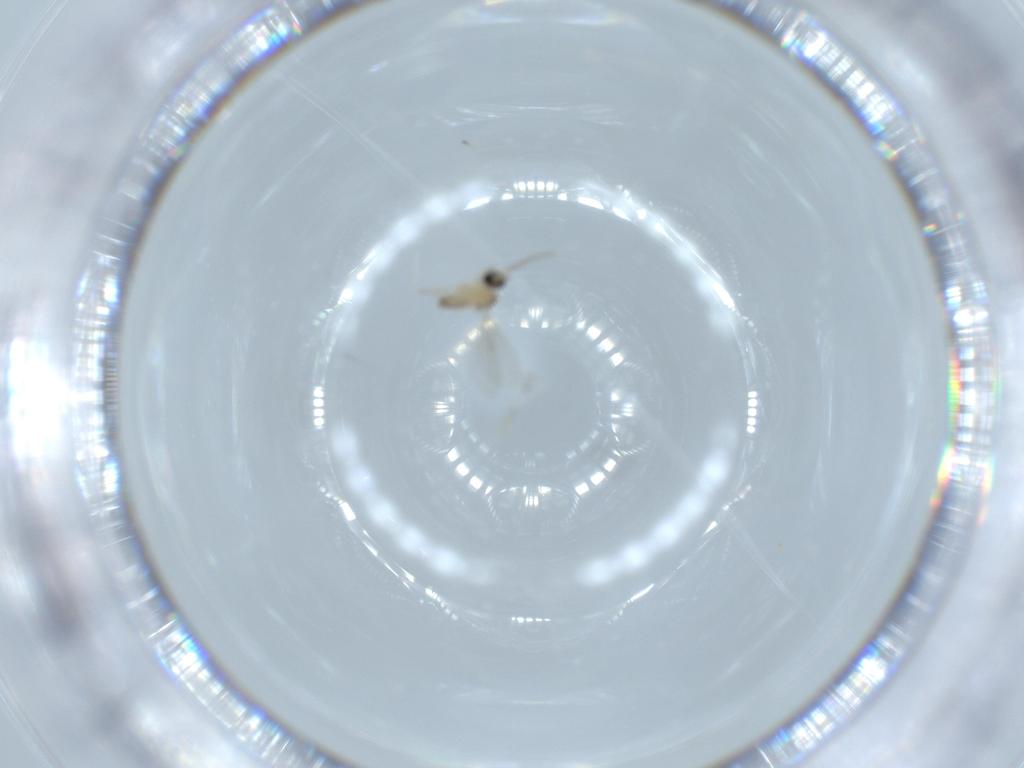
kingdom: Animalia
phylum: Arthropoda
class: Insecta
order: Diptera
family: Cecidomyiidae
